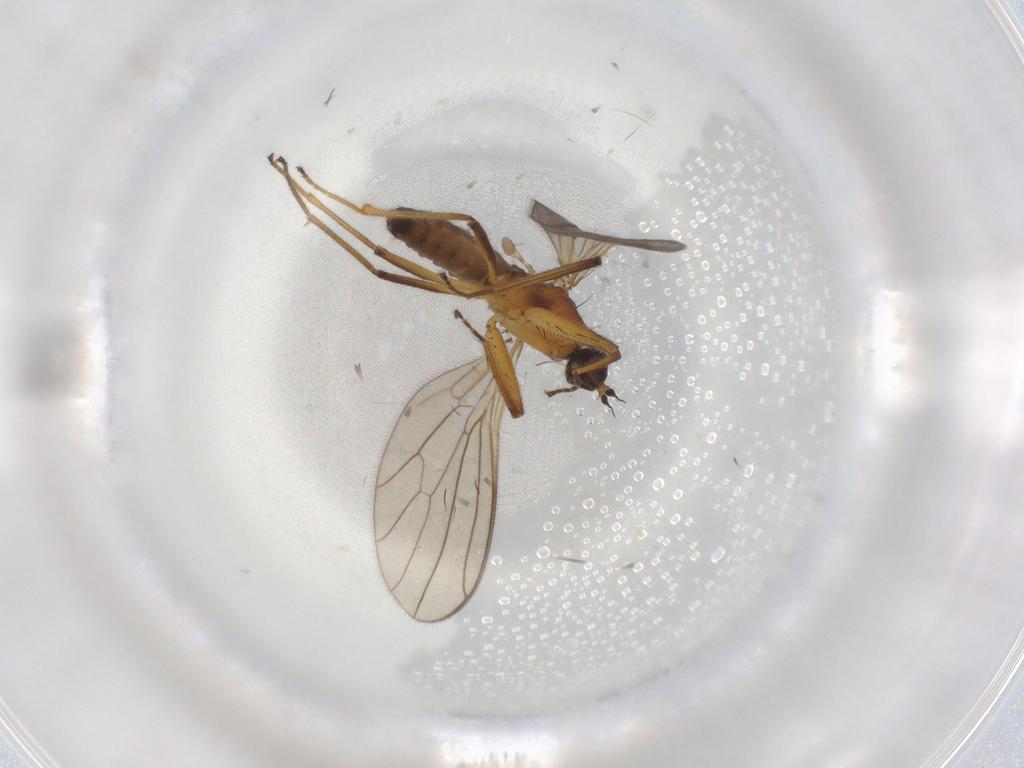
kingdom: Animalia
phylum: Arthropoda
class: Insecta
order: Diptera
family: Empididae
